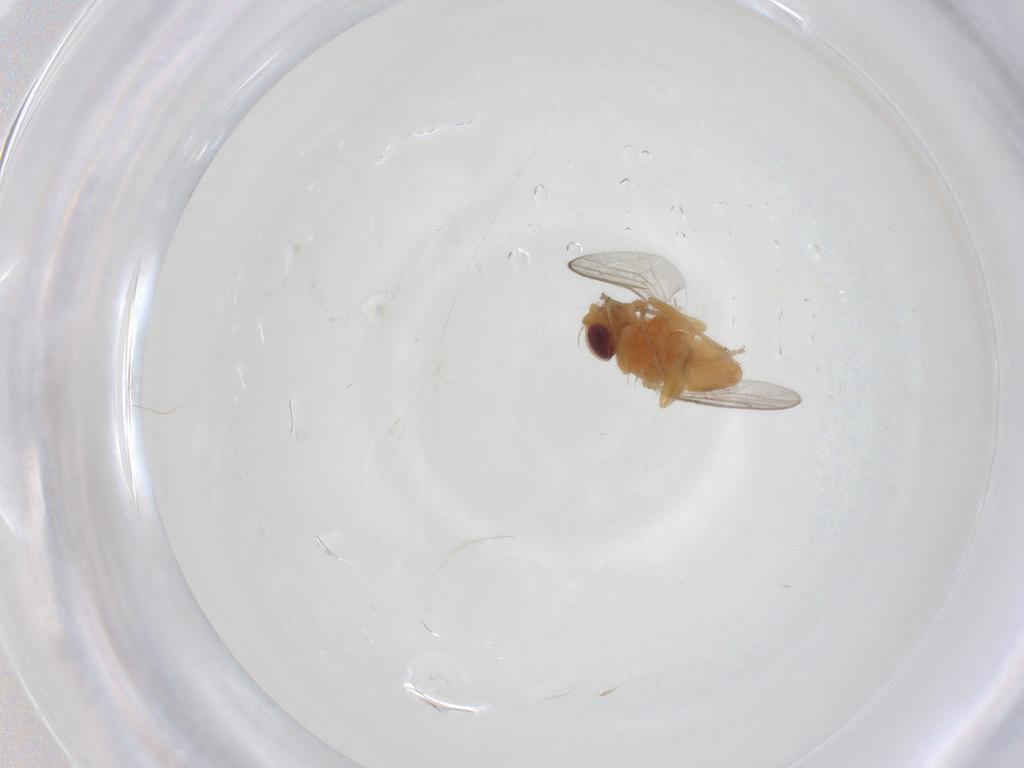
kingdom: Animalia
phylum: Arthropoda
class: Insecta
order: Diptera
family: Chloropidae
